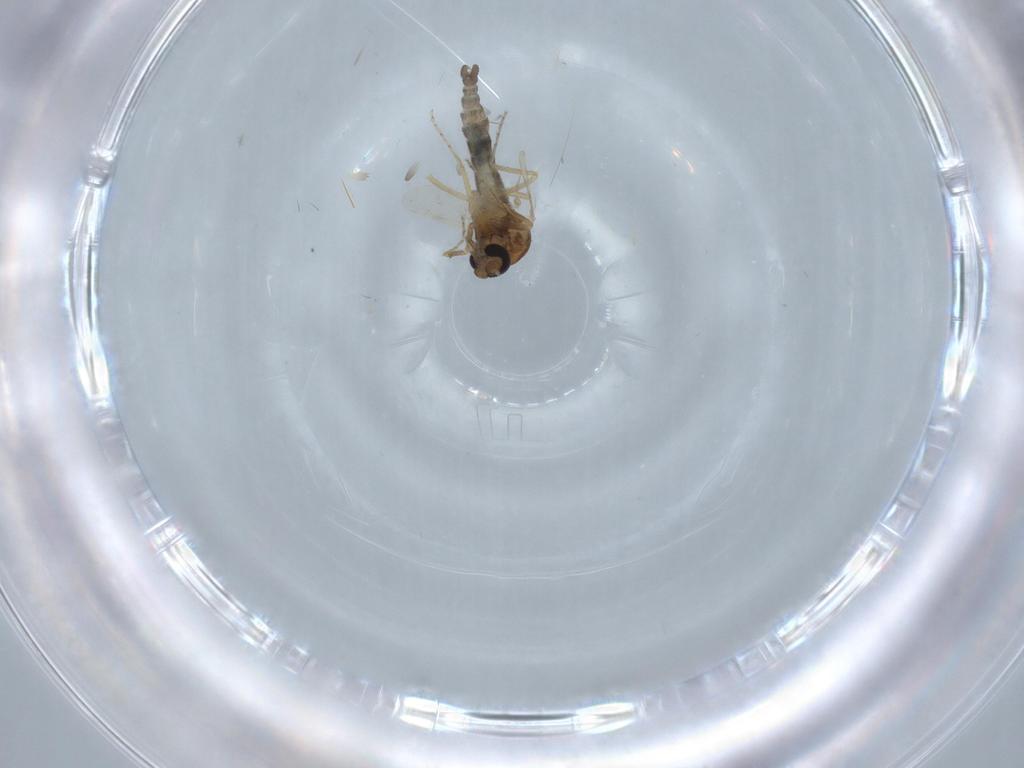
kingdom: Animalia
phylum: Arthropoda
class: Insecta
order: Diptera
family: Ceratopogonidae
